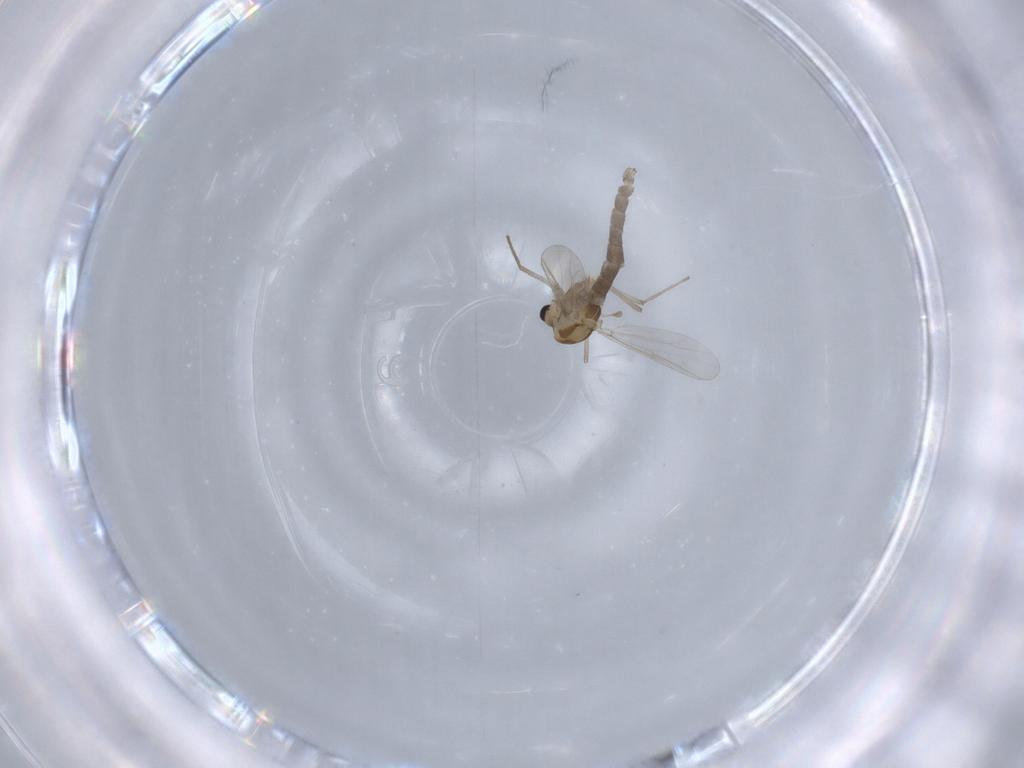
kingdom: Animalia
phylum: Arthropoda
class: Insecta
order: Diptera
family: Chironomidae
